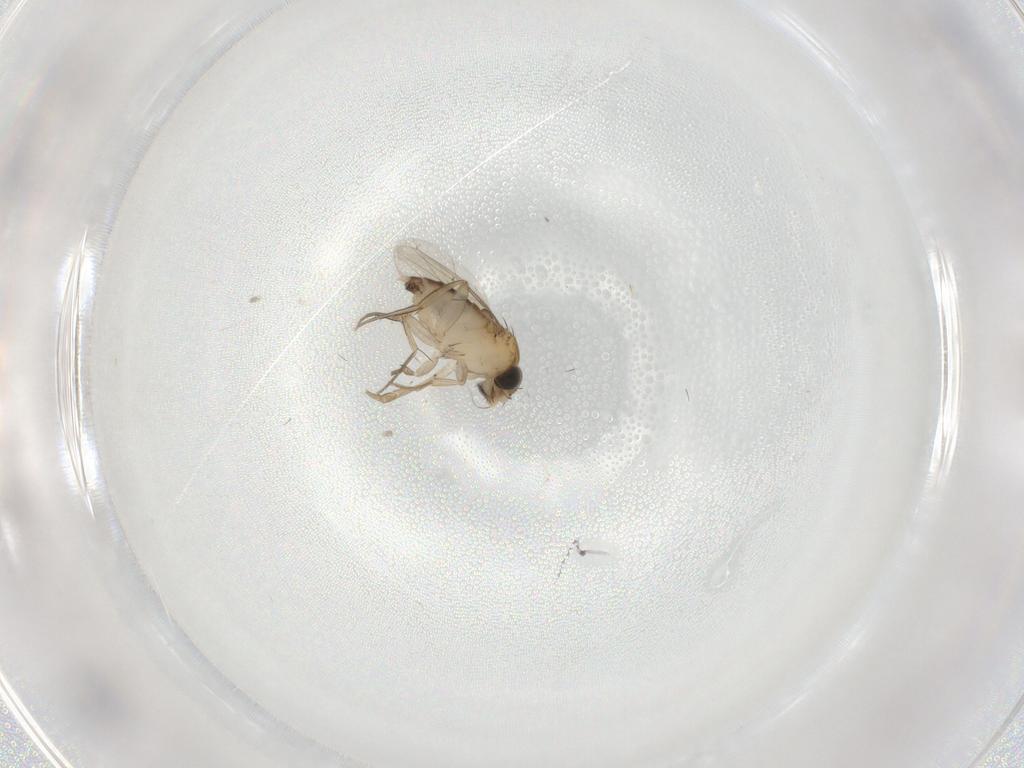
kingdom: Animalia
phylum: Arthropoda
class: Insecta
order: Diptera
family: Phoridae
